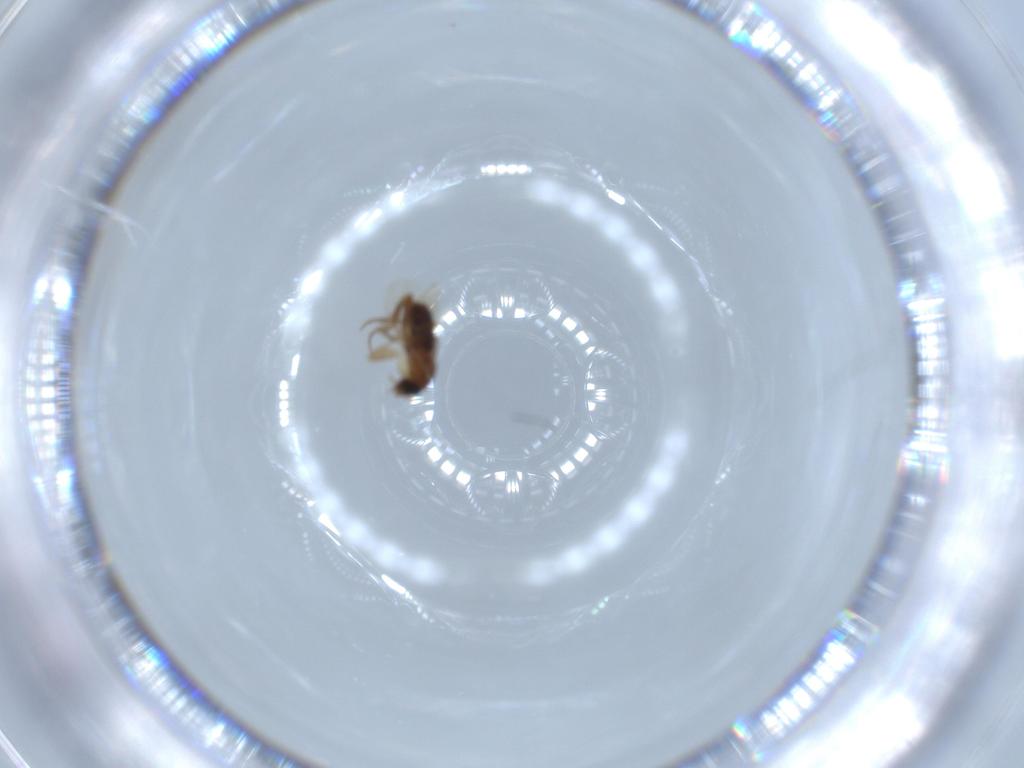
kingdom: Animalia
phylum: Arthropoda
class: Insecta
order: Diptera
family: Phoridae
